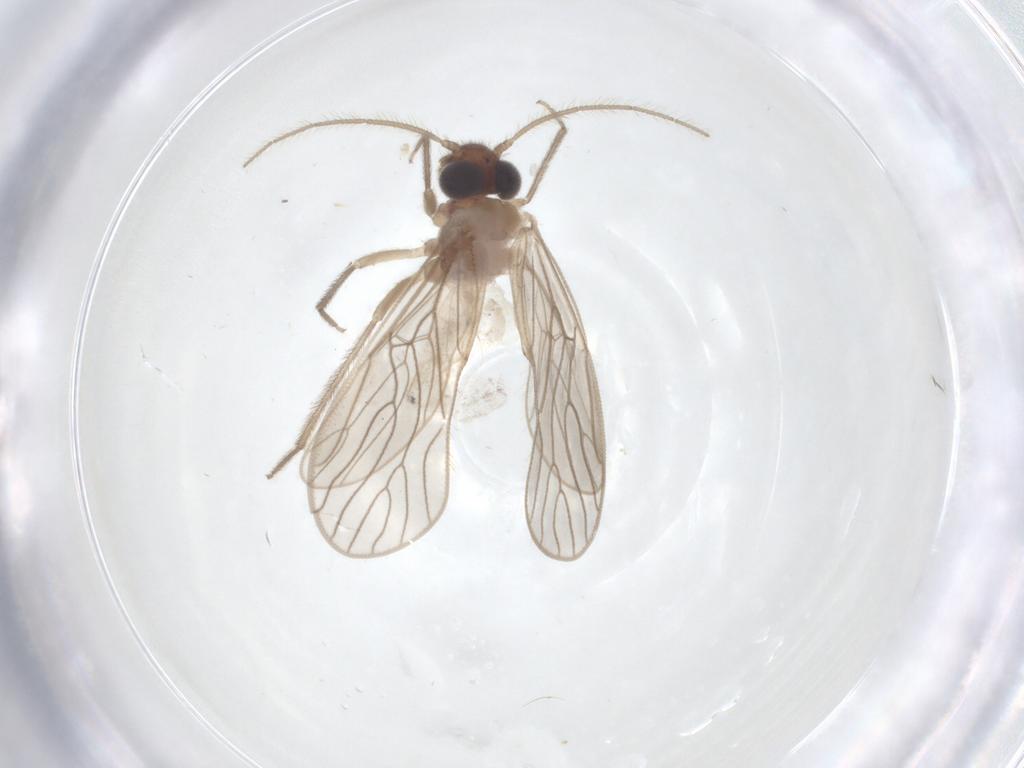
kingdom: Animalia
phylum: Arthropoda
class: Insecta
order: Psocodea
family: Epipsocidae
